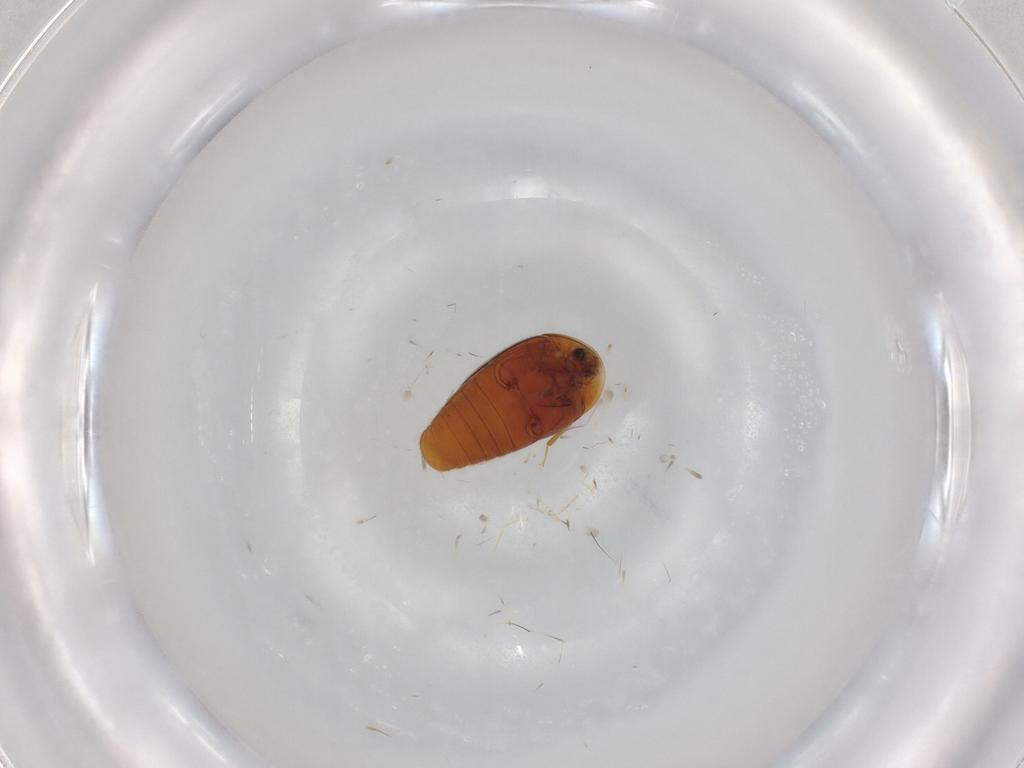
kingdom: Animalia
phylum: Arthropoda
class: Insecta
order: Coleoptera
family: Corylophidae
